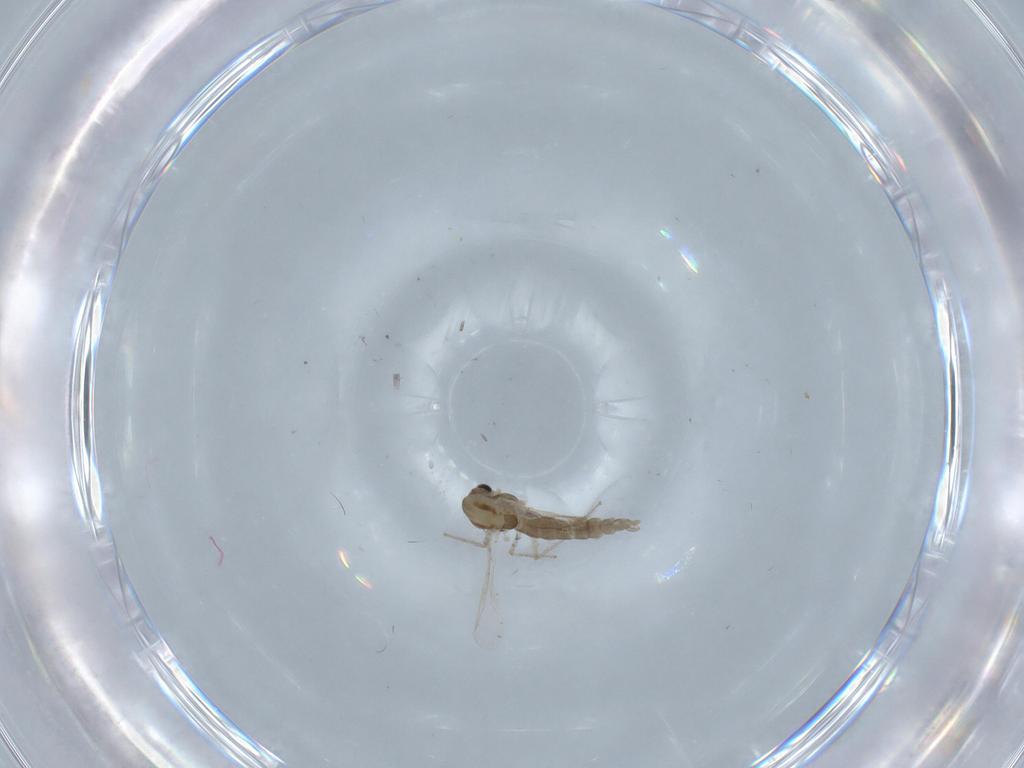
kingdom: Animalia
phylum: Arthropoda
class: Insecta
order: Diptera
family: Chironomidae
